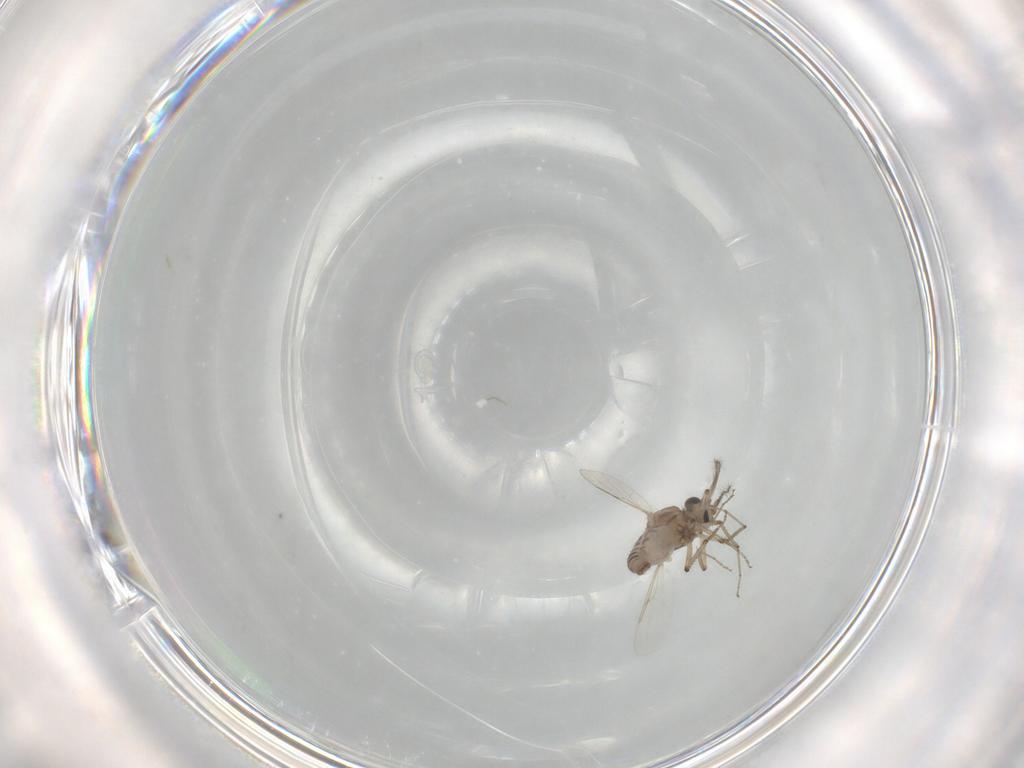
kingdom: Animalia
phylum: Arthropoda
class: Insecta
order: Diptera
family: Ceratopogonidae
